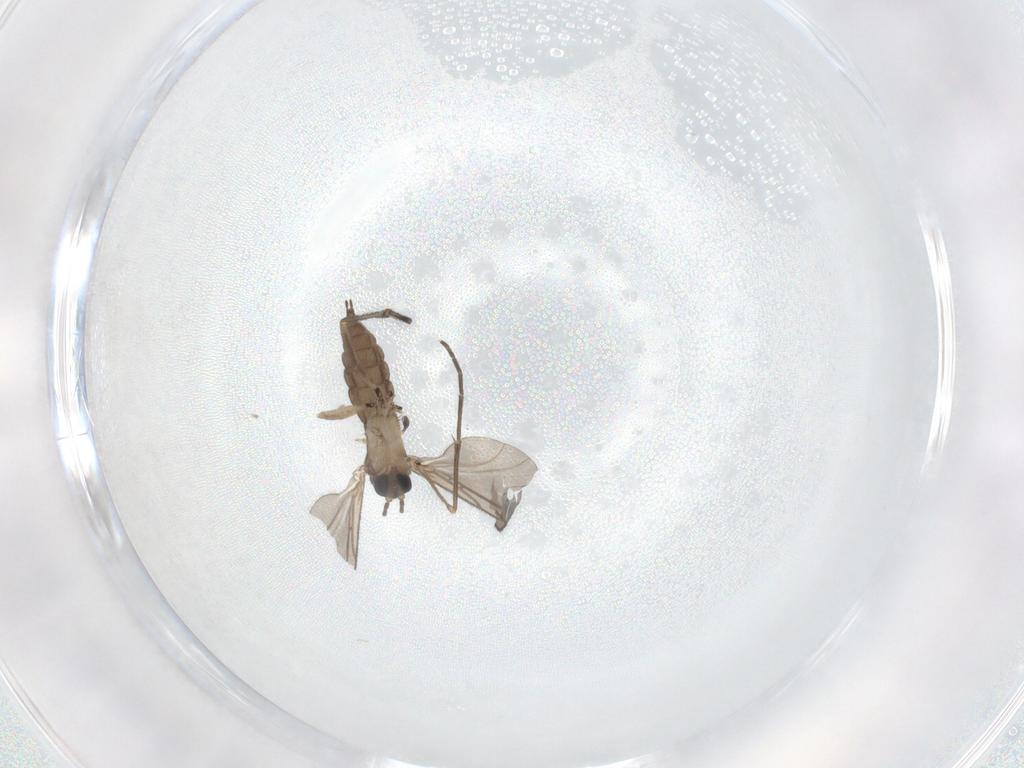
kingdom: Animalia
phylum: Arthropoda
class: Insecta
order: Diptera
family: Sciaridae
